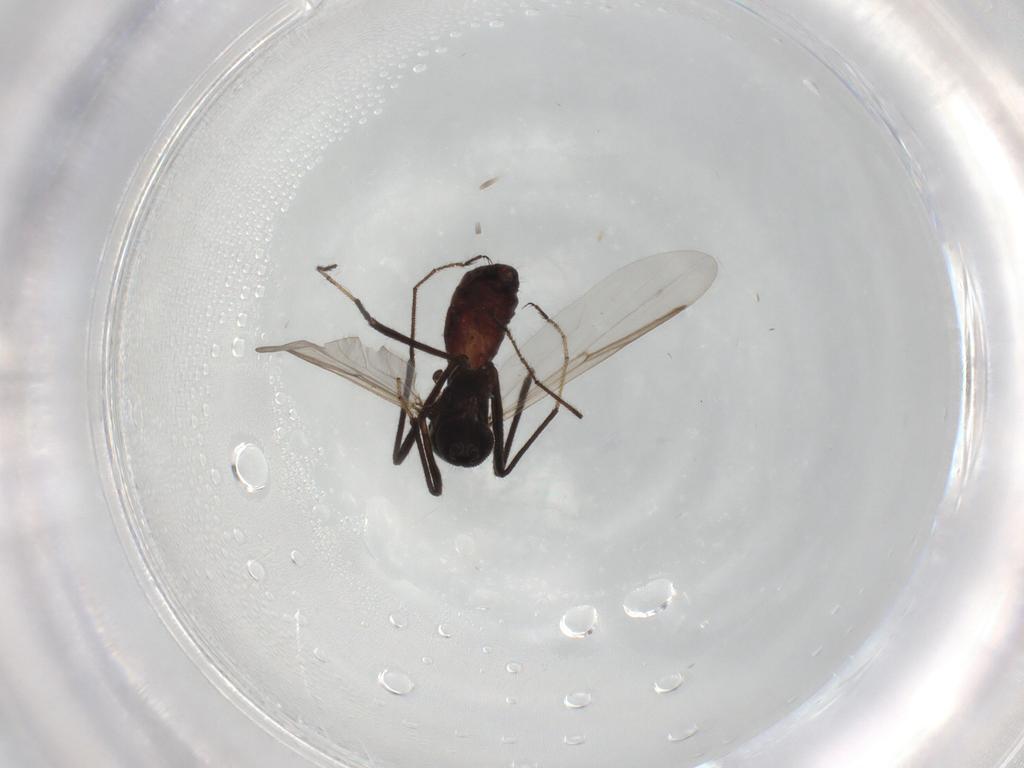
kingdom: Animalia
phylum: Arthropoda
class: Insecta
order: Diptera
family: Ceratopogonidae
